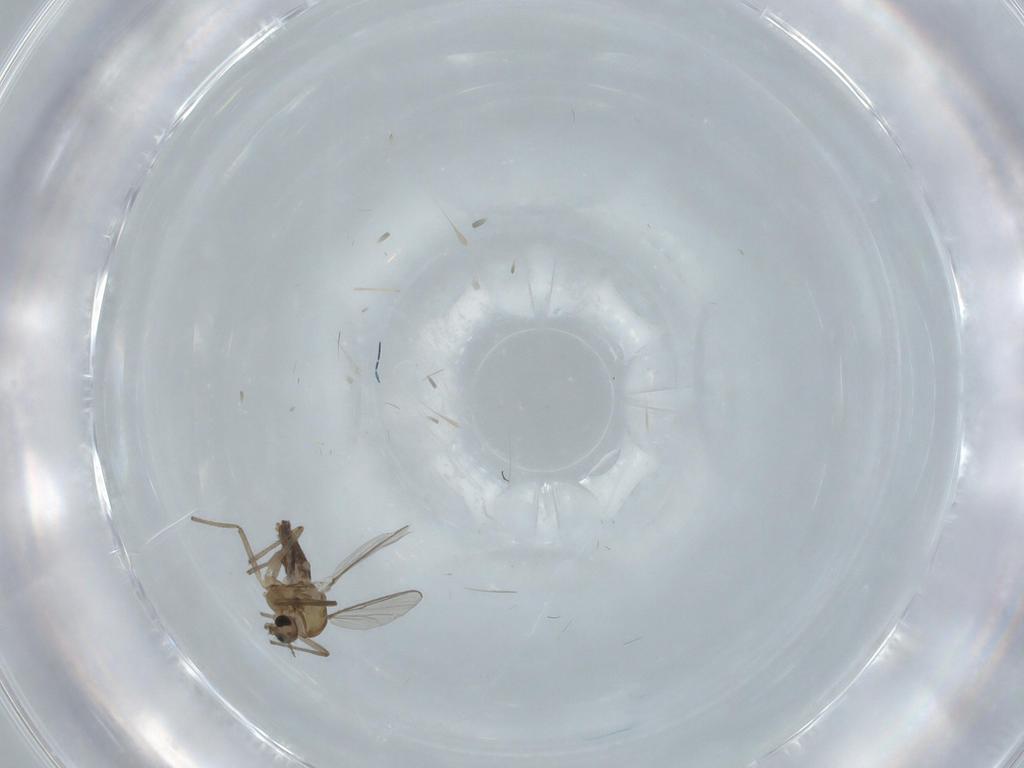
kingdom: Animalia
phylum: Arthropoda
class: Insecta
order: Diptera
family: Chironomidae
